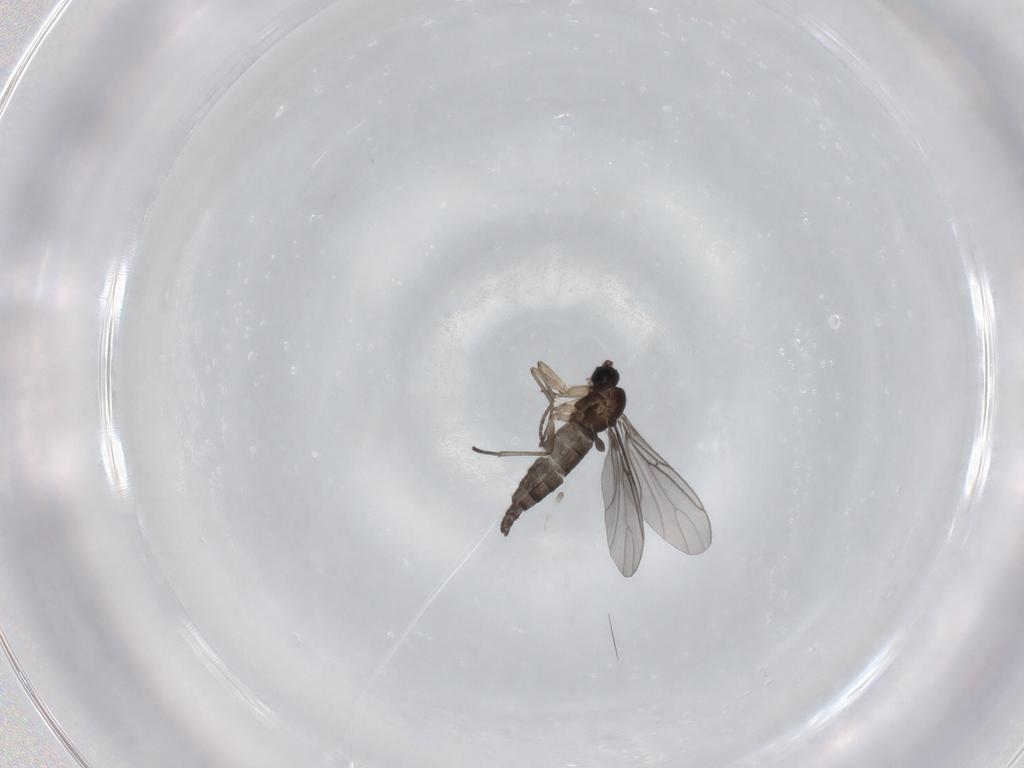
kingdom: Animalia
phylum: Arthropoda
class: Insecta
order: Diptera
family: Sciaridae
